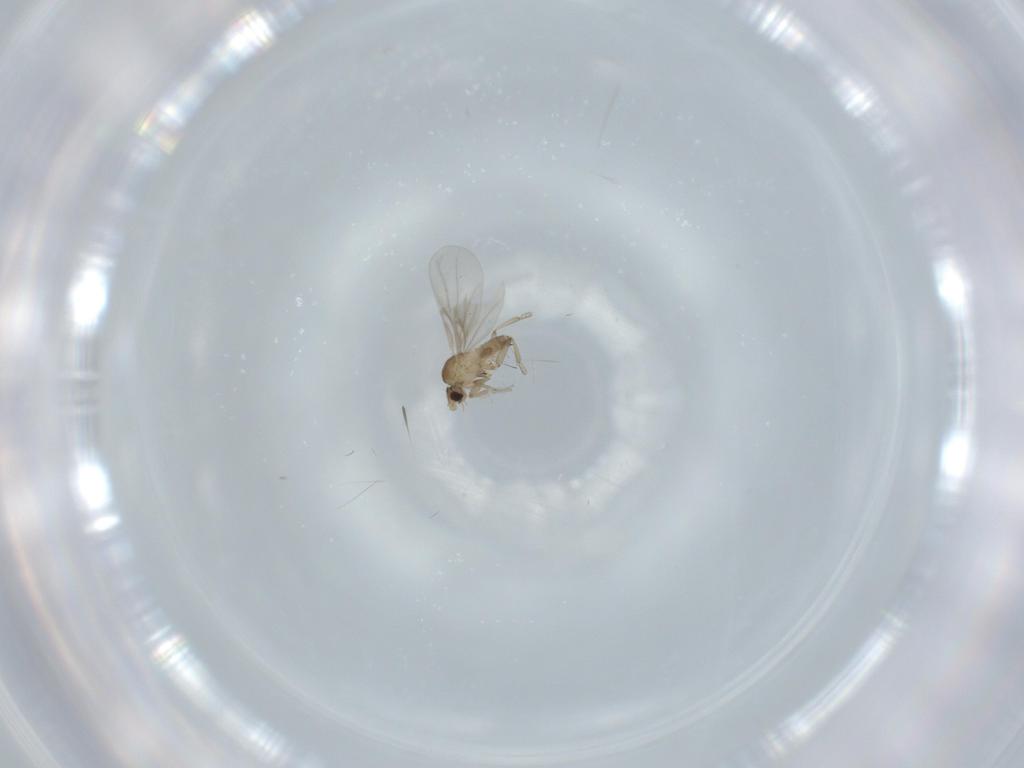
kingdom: Animalia
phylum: Arthropoda
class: Insecta
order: Diptera
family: Phoridae
